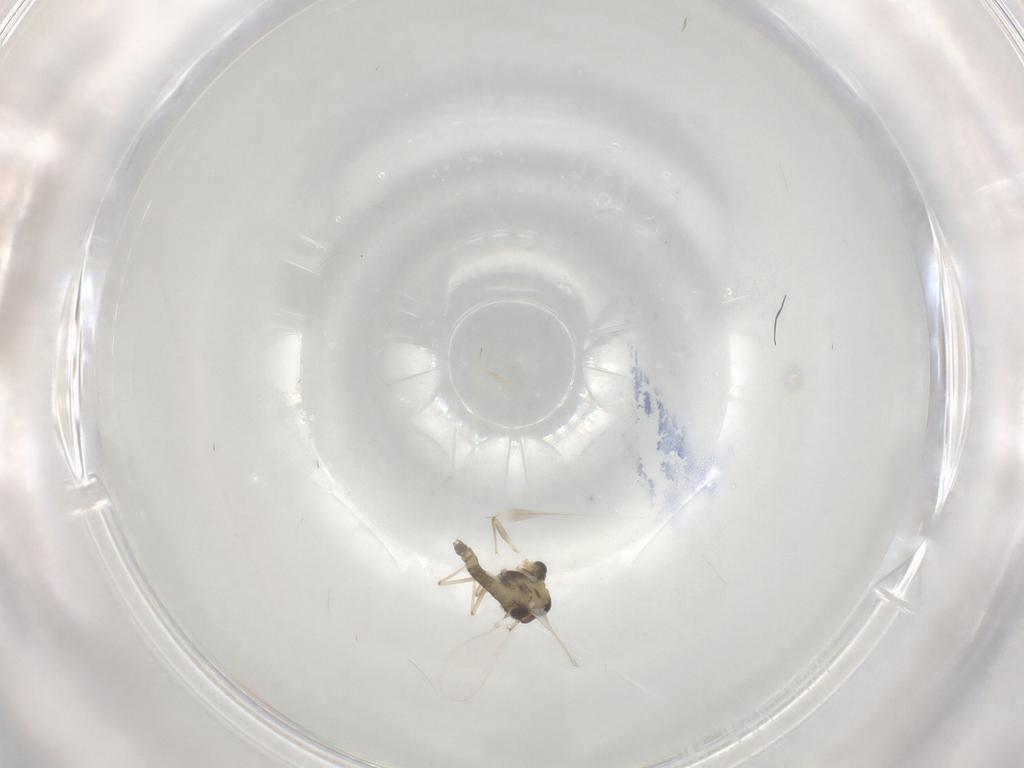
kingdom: Animalia
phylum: Arthropoda
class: Insecta
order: Diptera
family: Chironomidae
